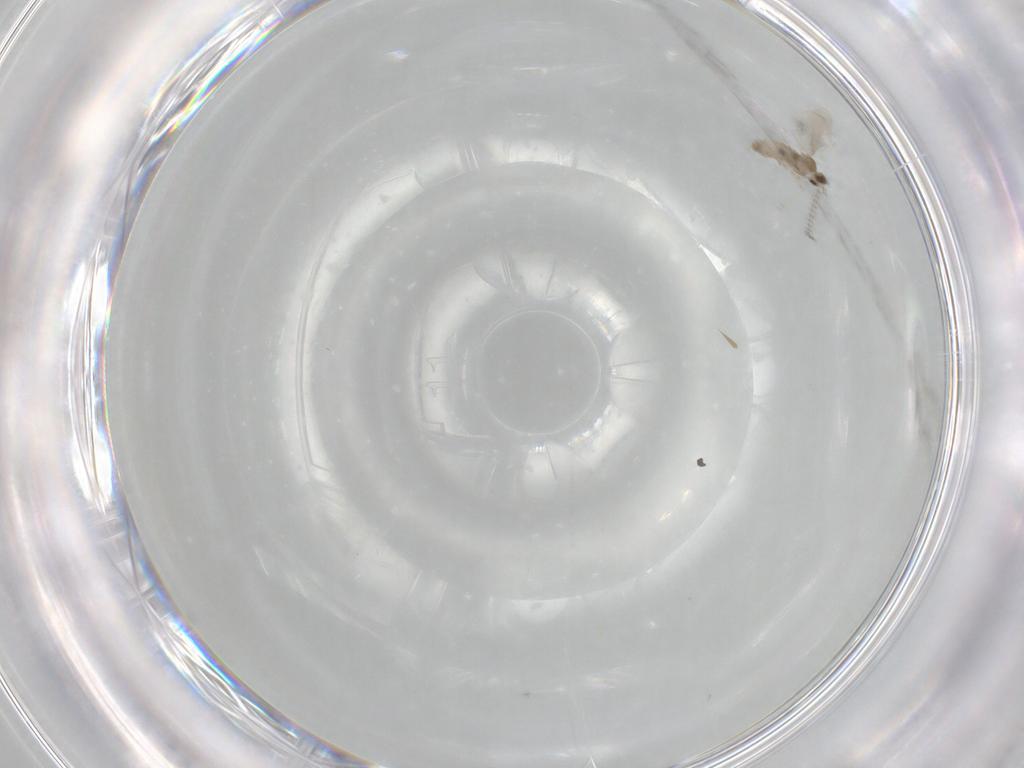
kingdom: Animalia
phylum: Arthropoda
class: Insecta
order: Diptera
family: Cecidomyiidae
